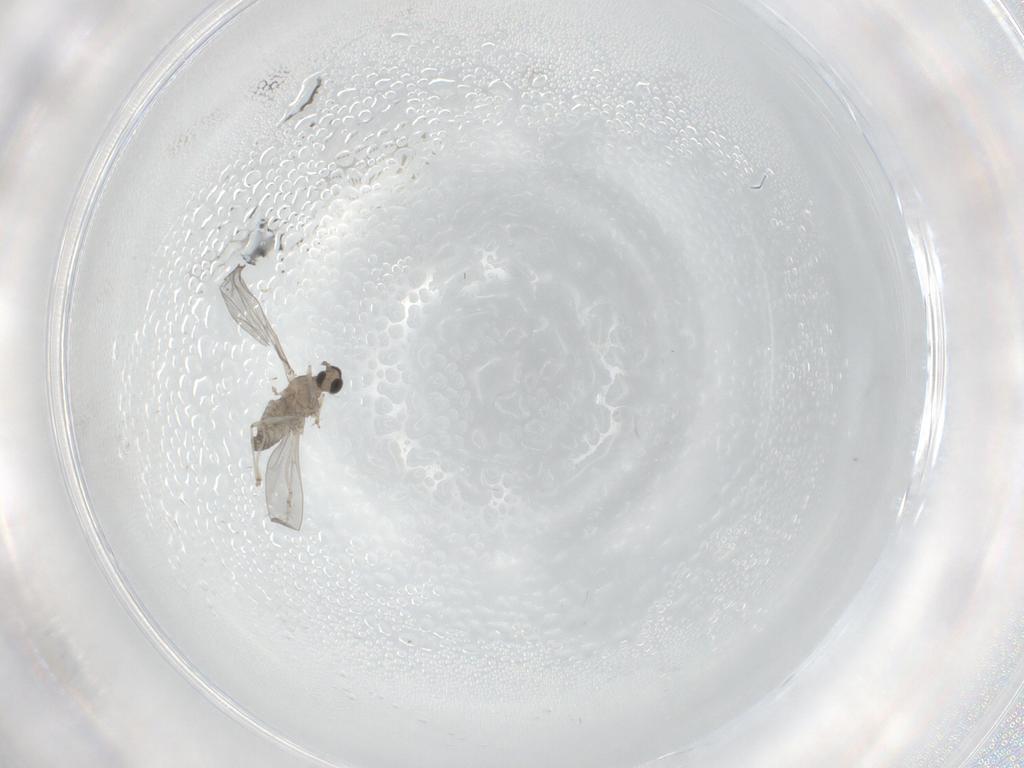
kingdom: Animalia
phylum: Arthropoda
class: Insecta
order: Diptera
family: Cecidomyiidae
